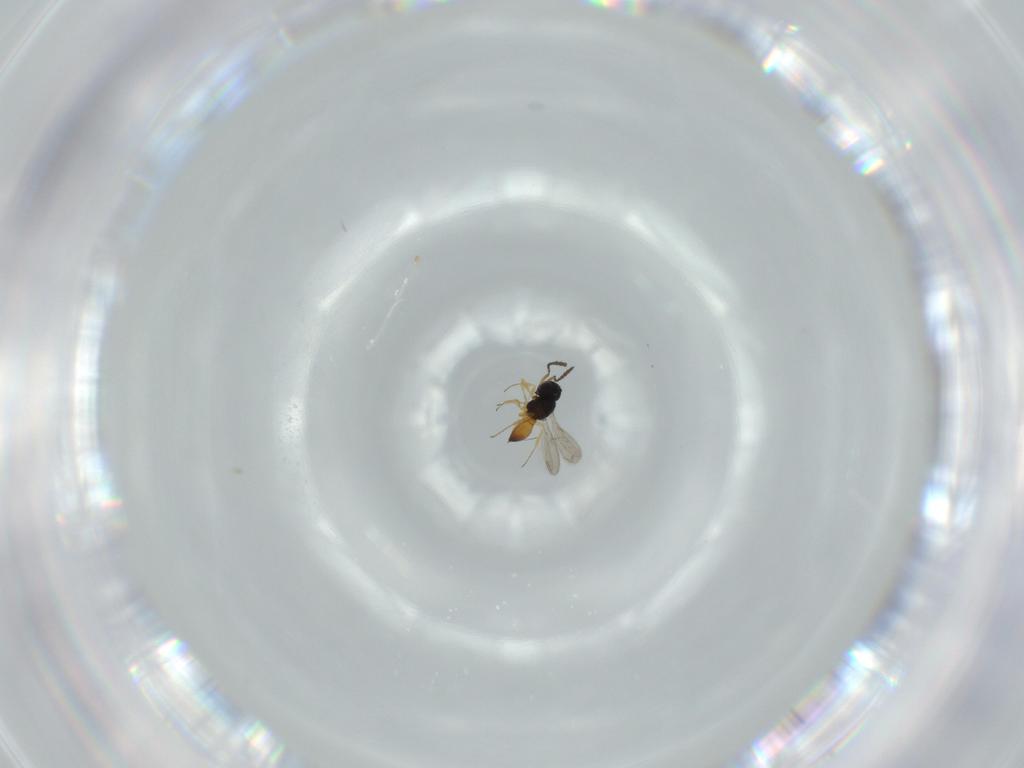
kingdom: Animalia
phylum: Arthropoda
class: Insecta
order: Hymenoptera
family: Scelionidae
